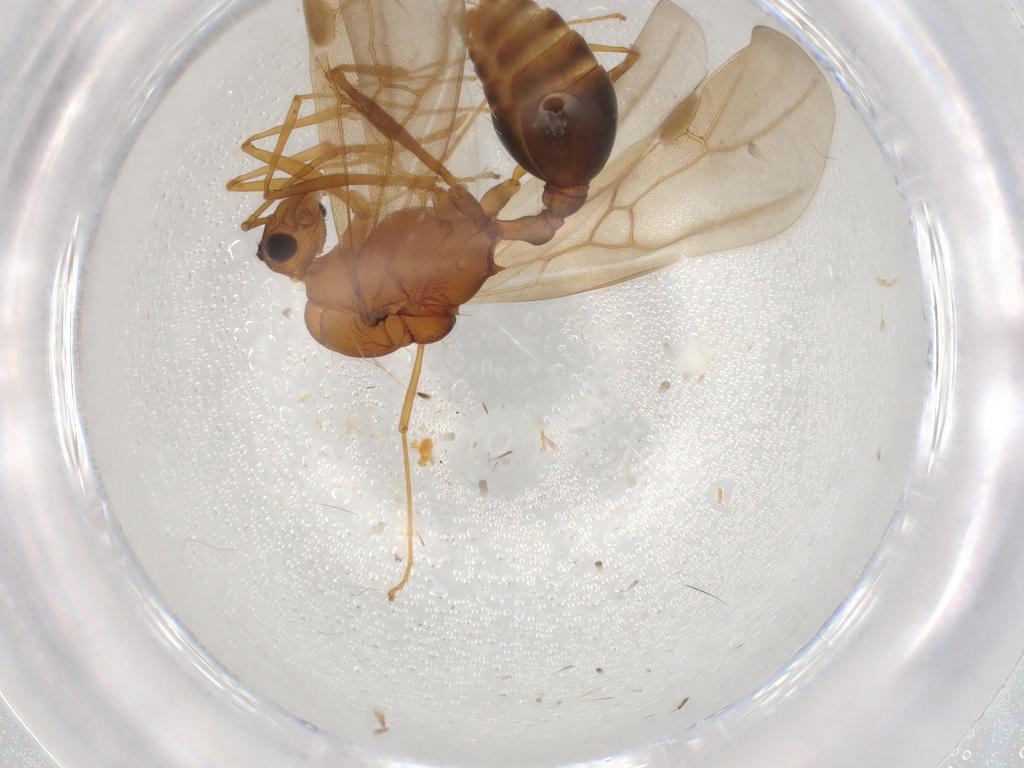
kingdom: Animalia
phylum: Arthropoda
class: Insecta
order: Hymenoptera
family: Formicidae
